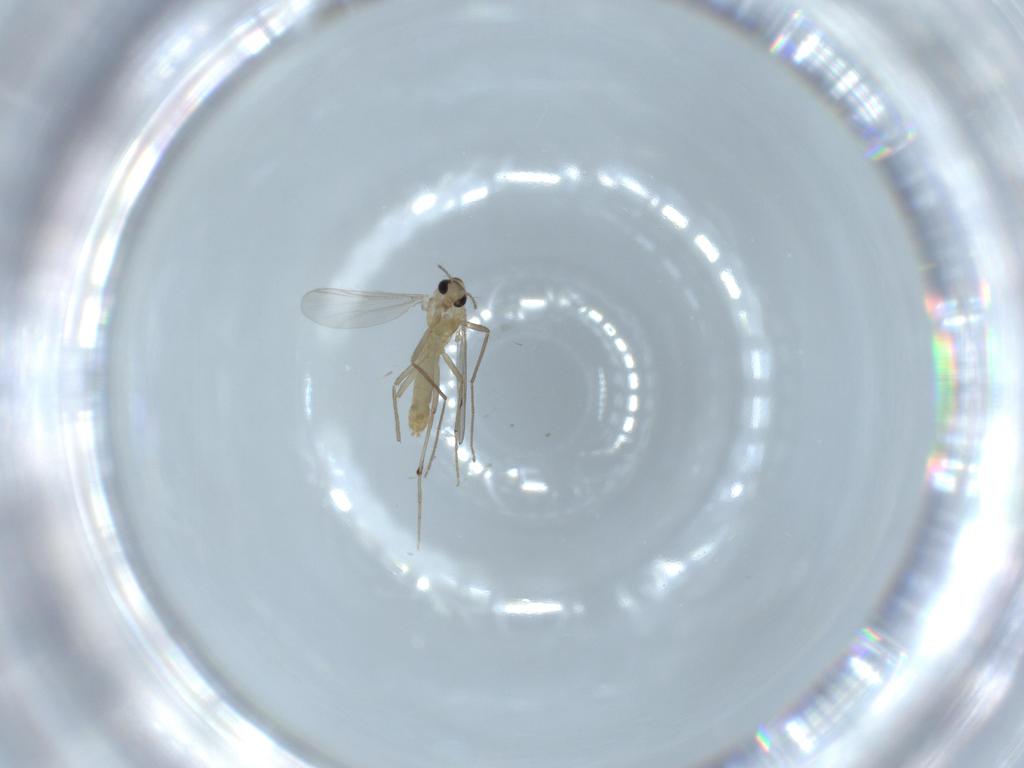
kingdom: Animalia
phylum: Arthropoda
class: Insecta
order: Diptera
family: Chironomidae
